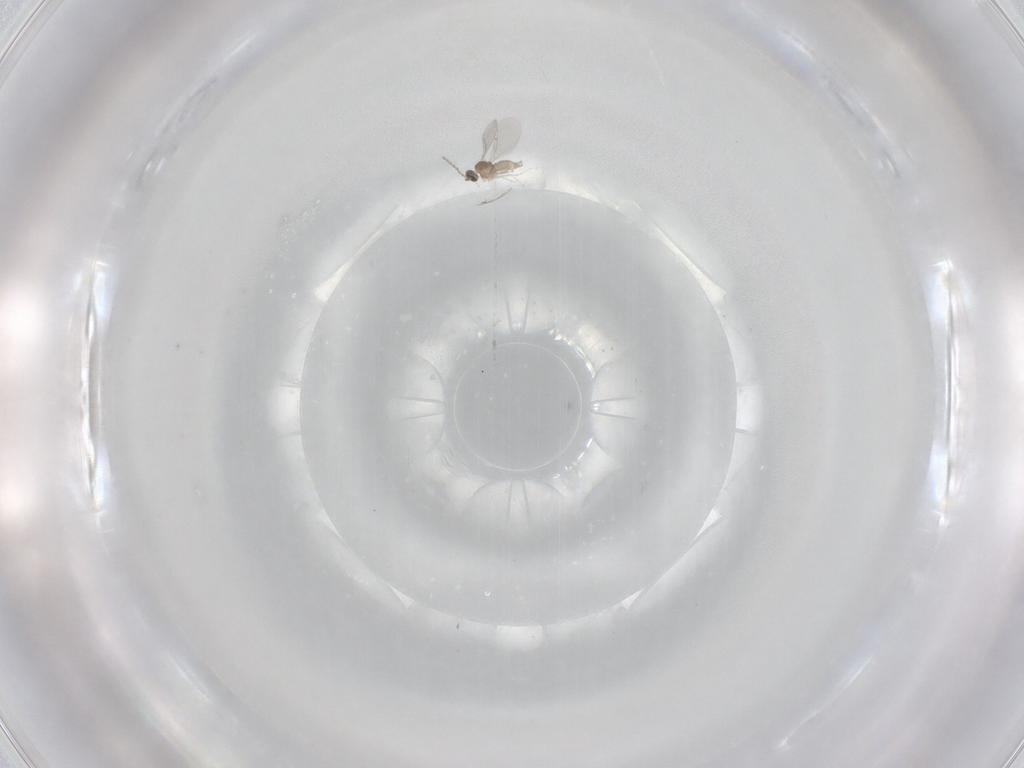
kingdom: Animalia
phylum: Arthropoda
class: Insecta
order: Diptera
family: Cecidomyiidae
